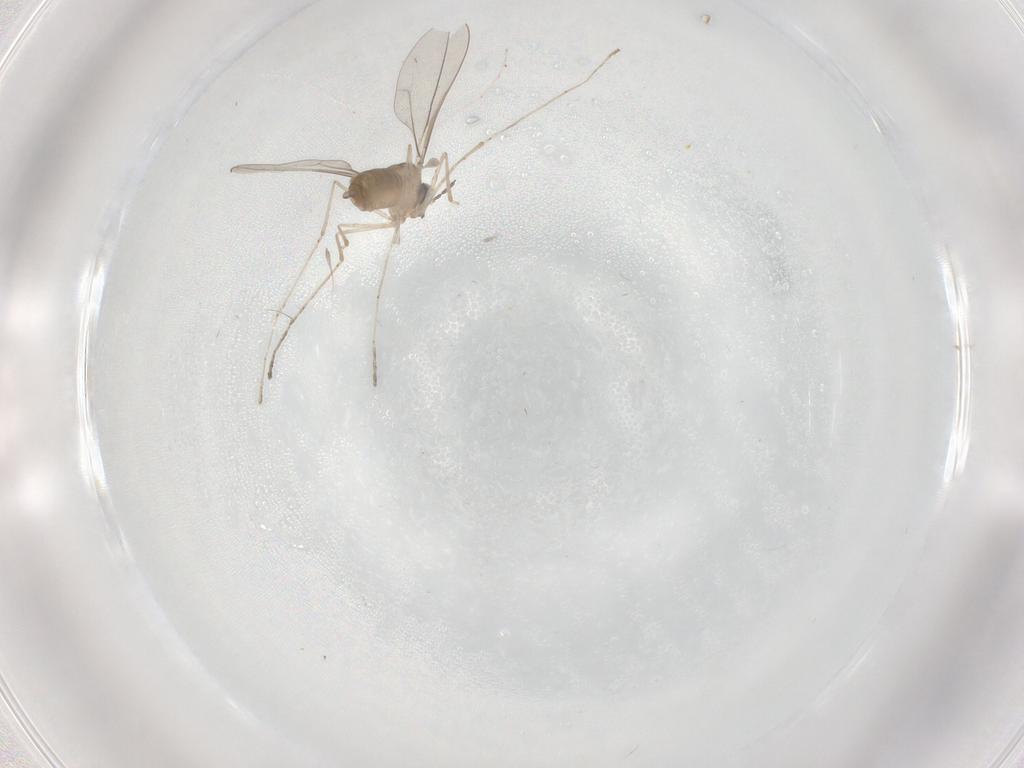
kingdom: Animalia
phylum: Arthropoda
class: Insecta
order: Diptera
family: Cecidomyiidae
